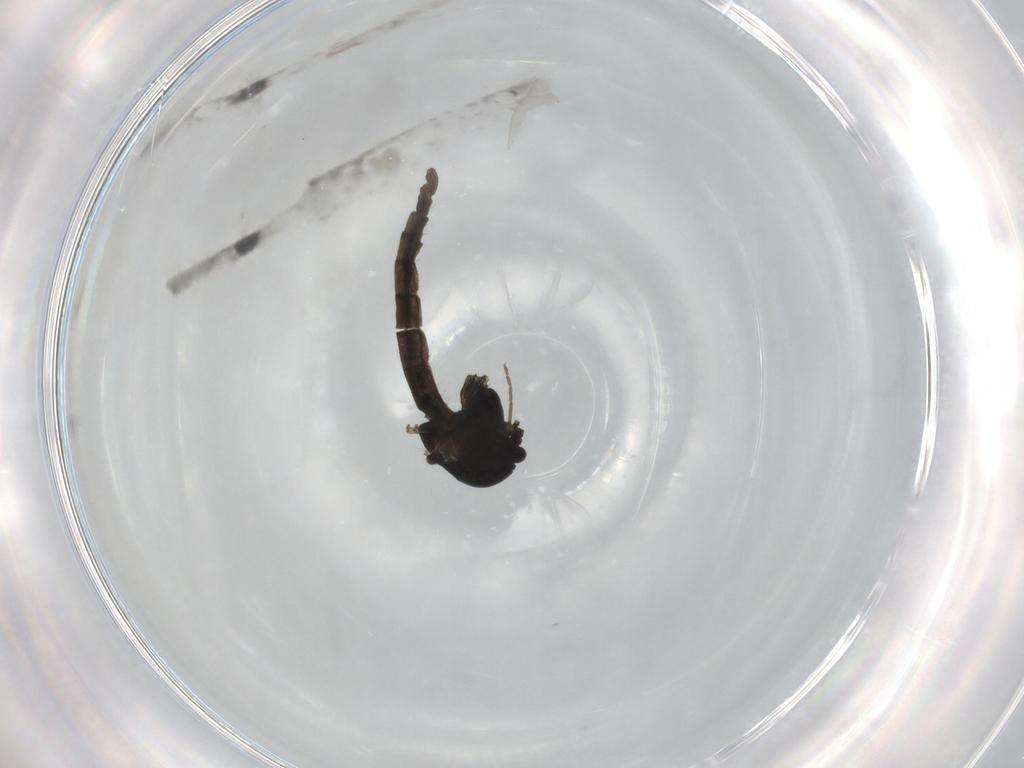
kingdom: Animalia
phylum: Arthropoda
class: Insecta
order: Diptera
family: Chironomidae
